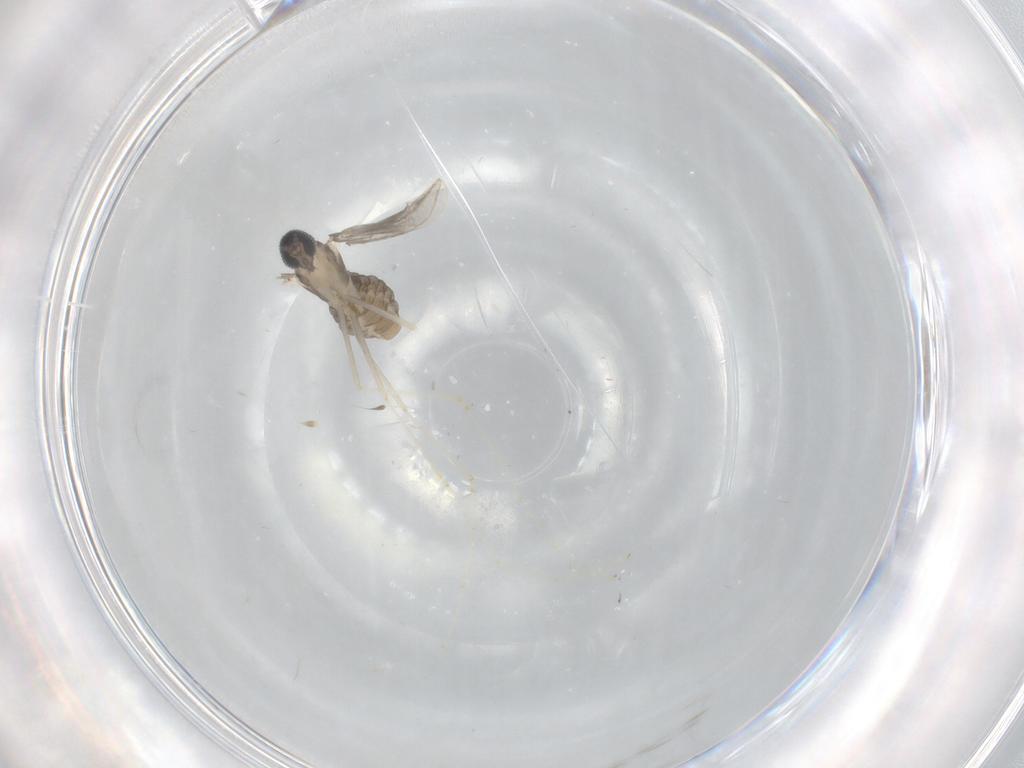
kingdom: Animalia
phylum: Arthropoda
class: Insecta
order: Diptera
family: Cecidomyiidae
